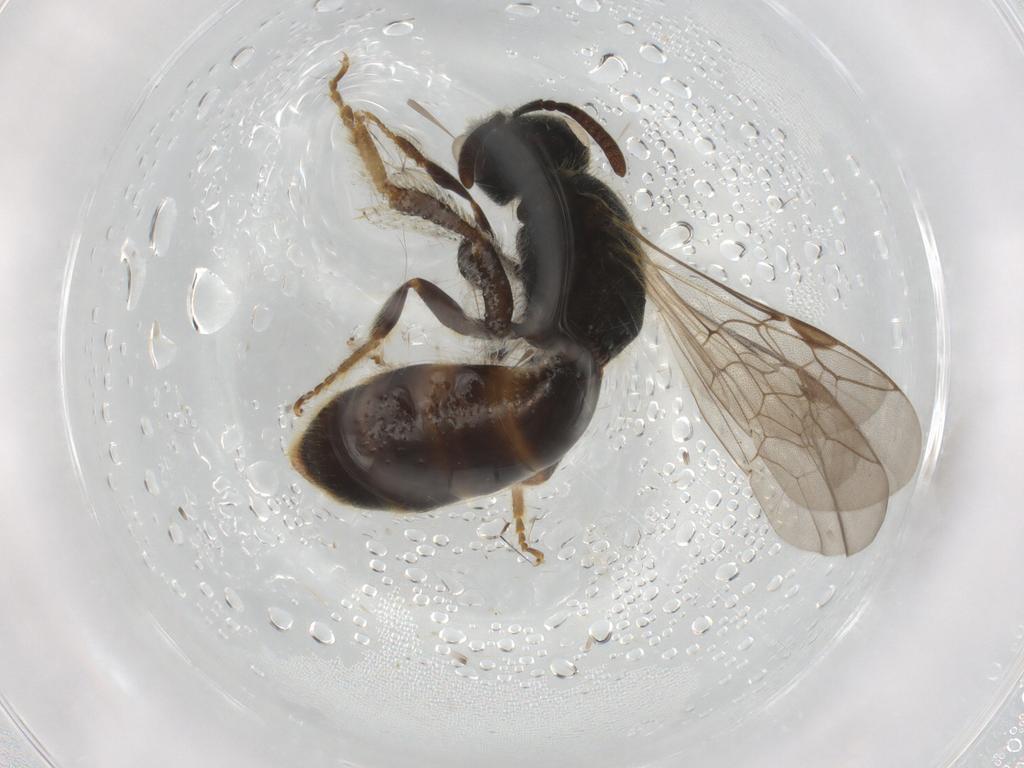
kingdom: Animalia
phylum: Arthropoda
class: Insecta
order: Hymenoptera
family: Halictidae
